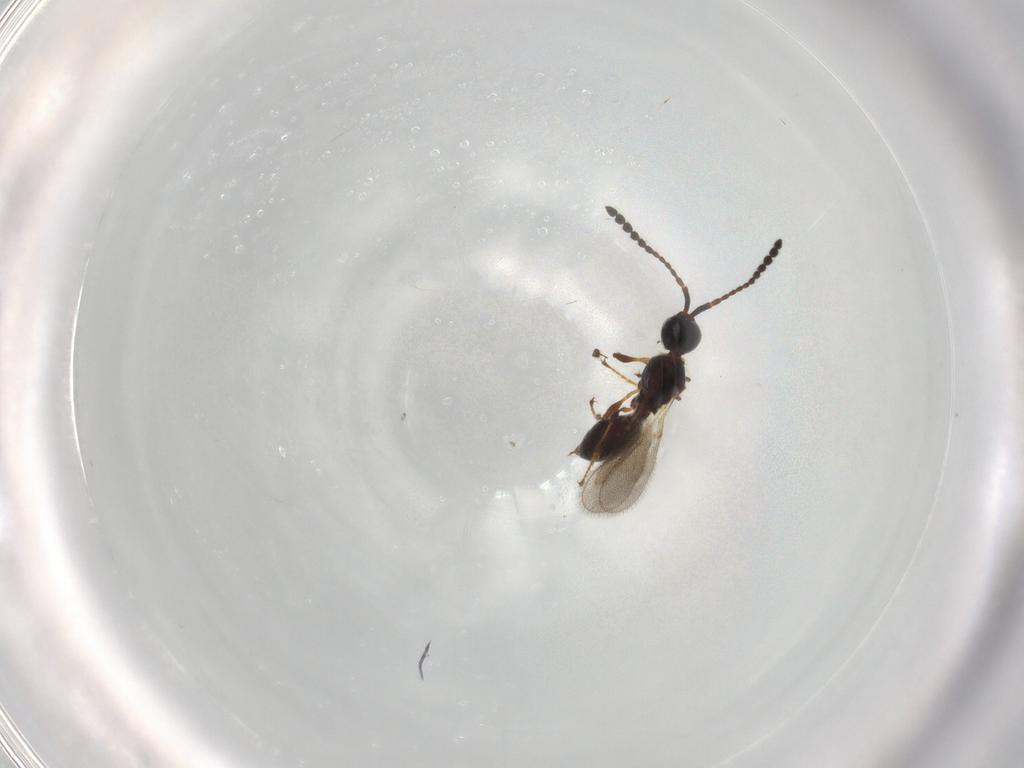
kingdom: Animalia
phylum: Arthropoda
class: Insecta
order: Hymenoptera
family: Diapriidae
